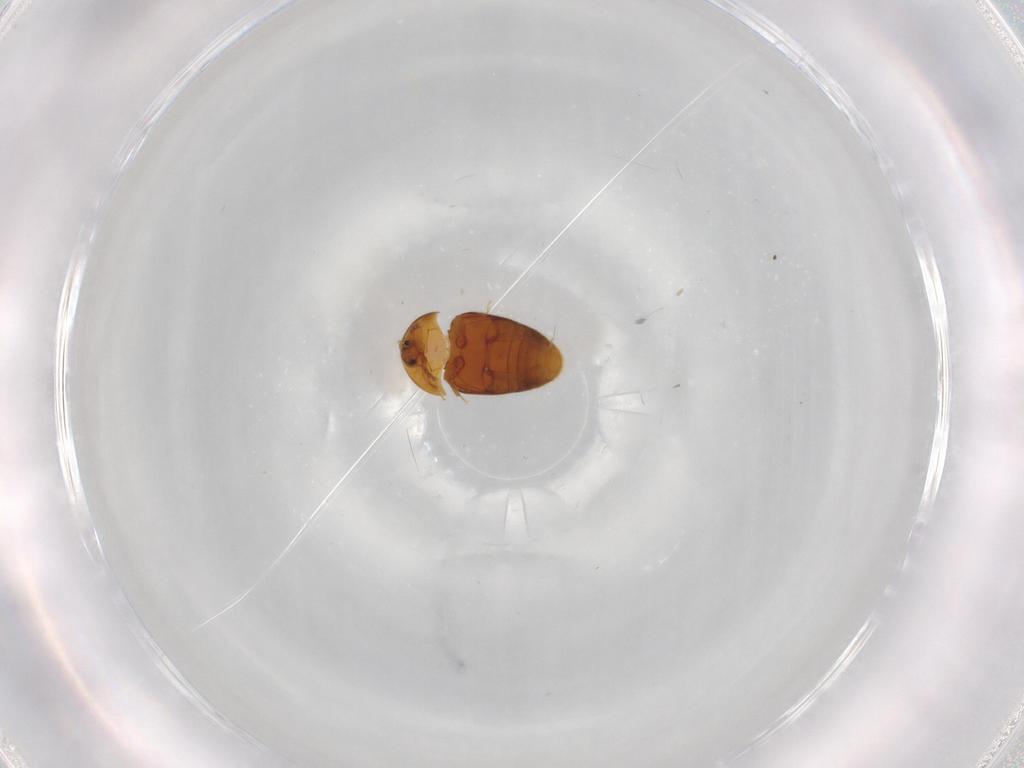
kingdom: Animalia
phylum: Arthropoda
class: Insecta
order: Coleoptera
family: Corylophidae
